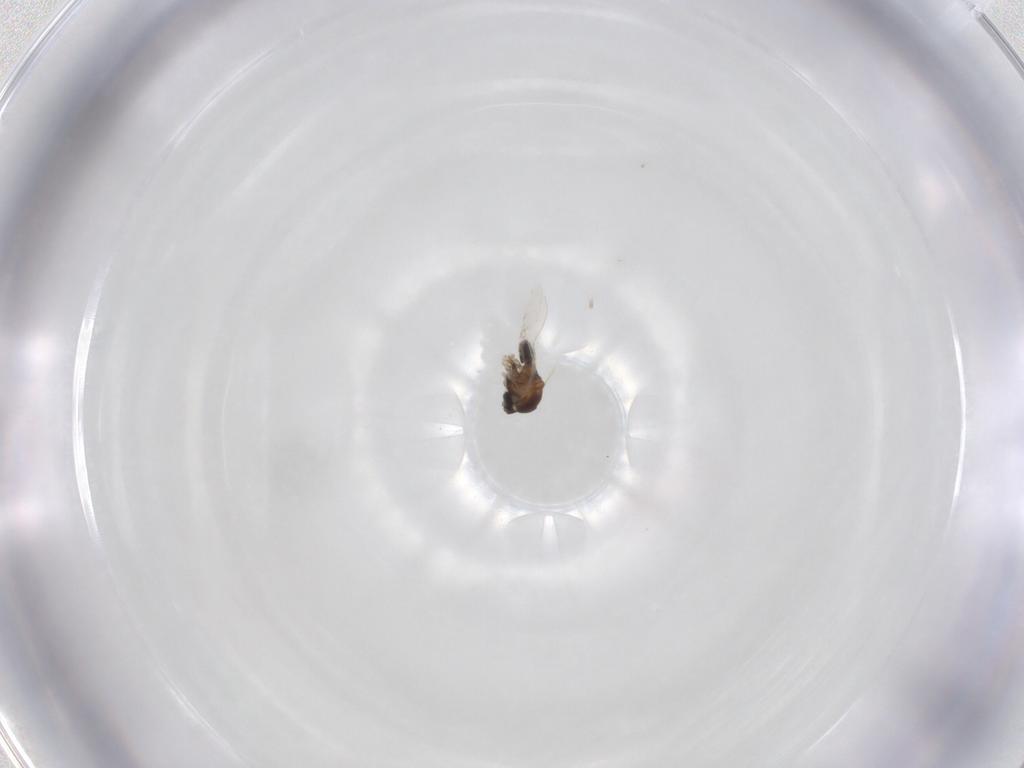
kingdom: Animalia
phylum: Arthropoda
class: Insecta
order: Diptera
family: Cecidomyiidae
